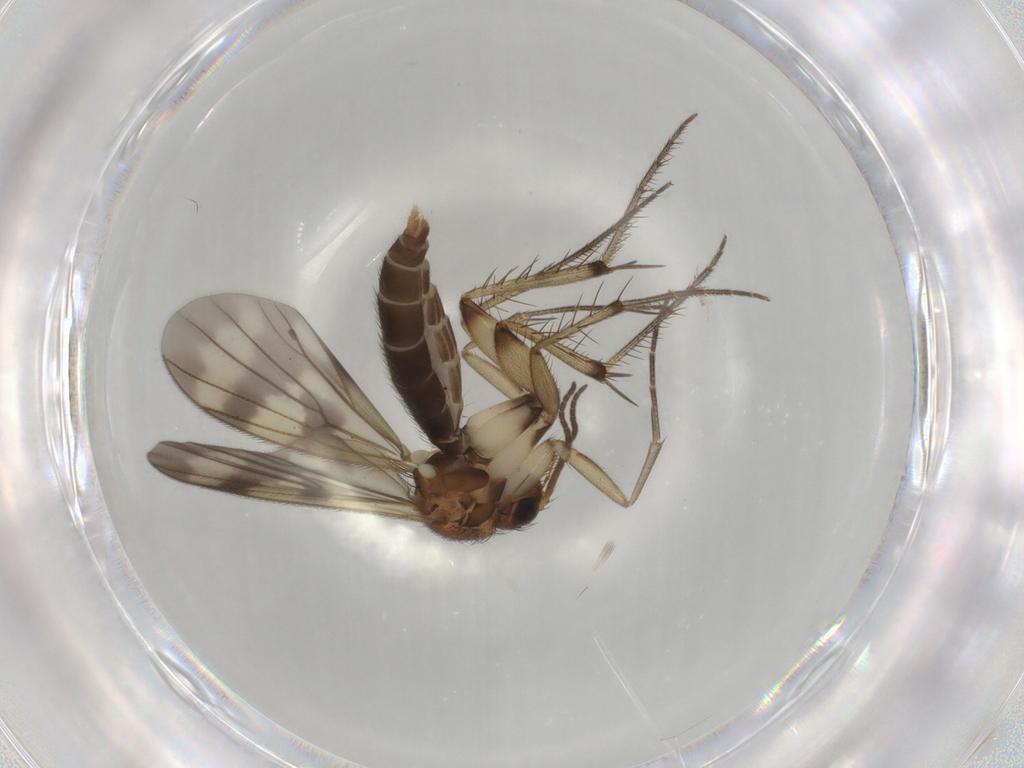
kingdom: Animalia
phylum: Arthropoda
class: Insecta
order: Diptera
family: Mycetophilidae
